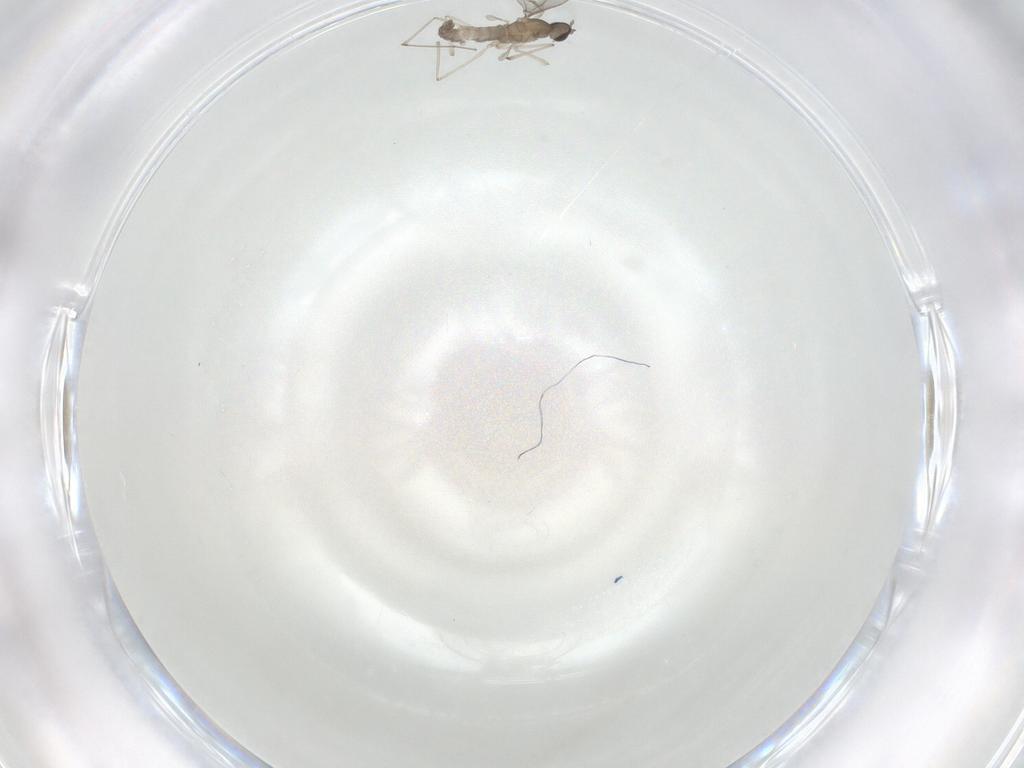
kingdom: Animalia
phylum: Arthropoda
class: Insecta
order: Diptera
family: Cecidomyiidae
